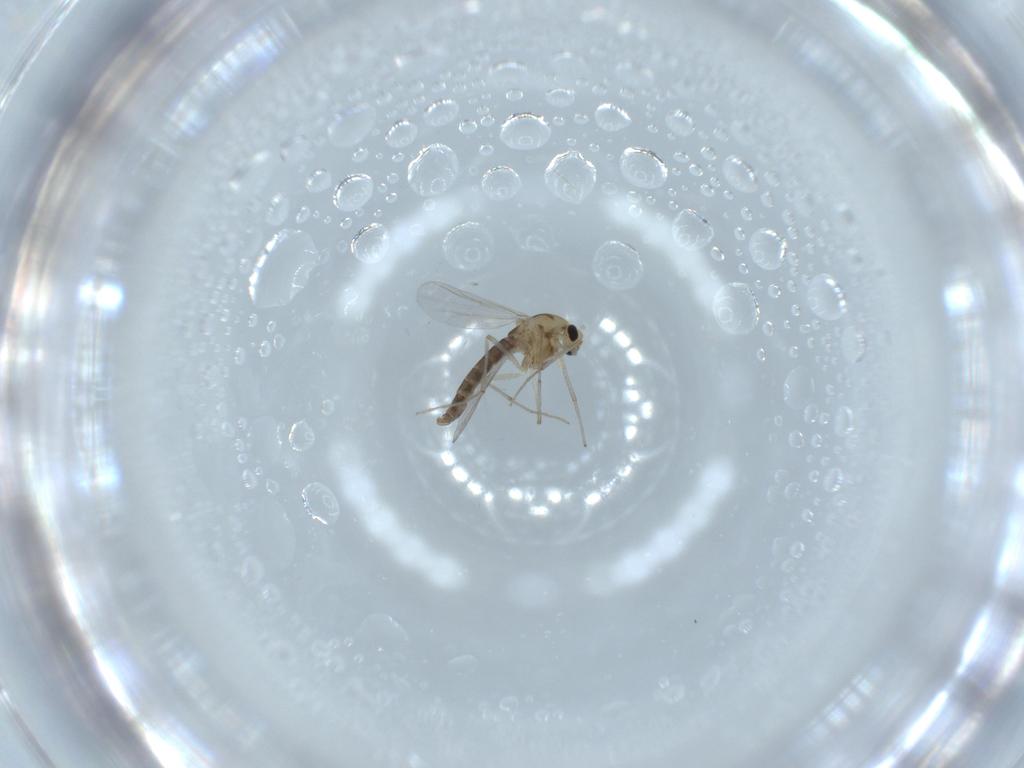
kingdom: Animalia
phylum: Arthropoda
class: Insecta
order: Diptera
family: Chironomidae
